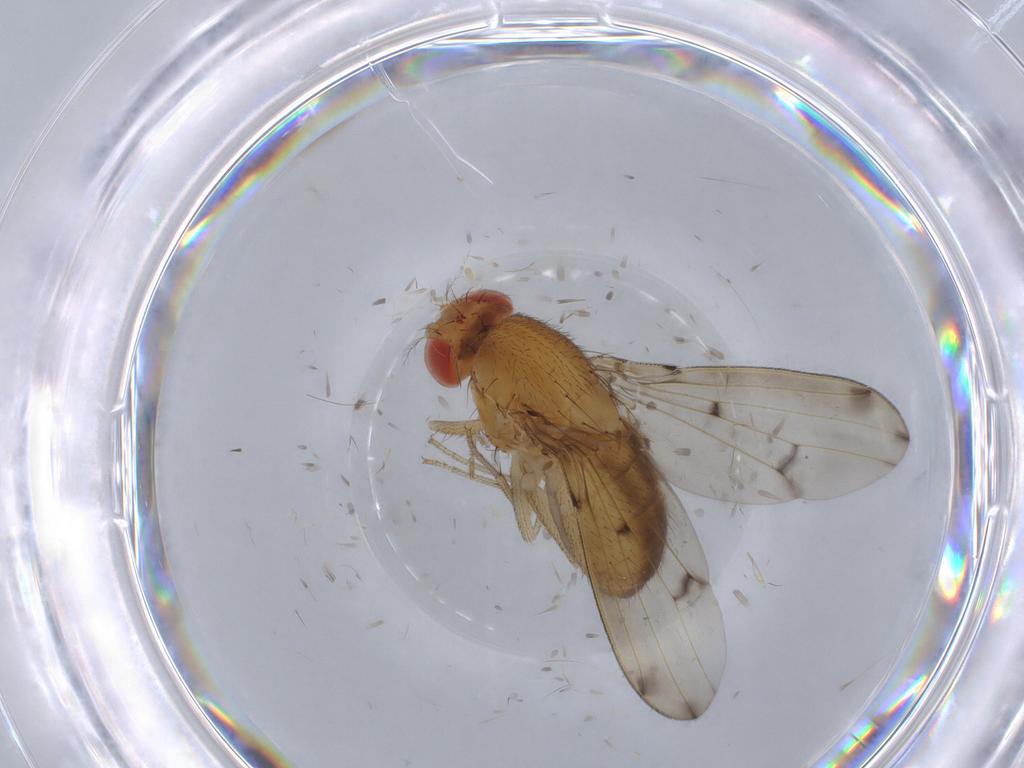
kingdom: Animalia
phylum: Arthropoda
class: Insecta
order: Diptera
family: Drosophilidae
